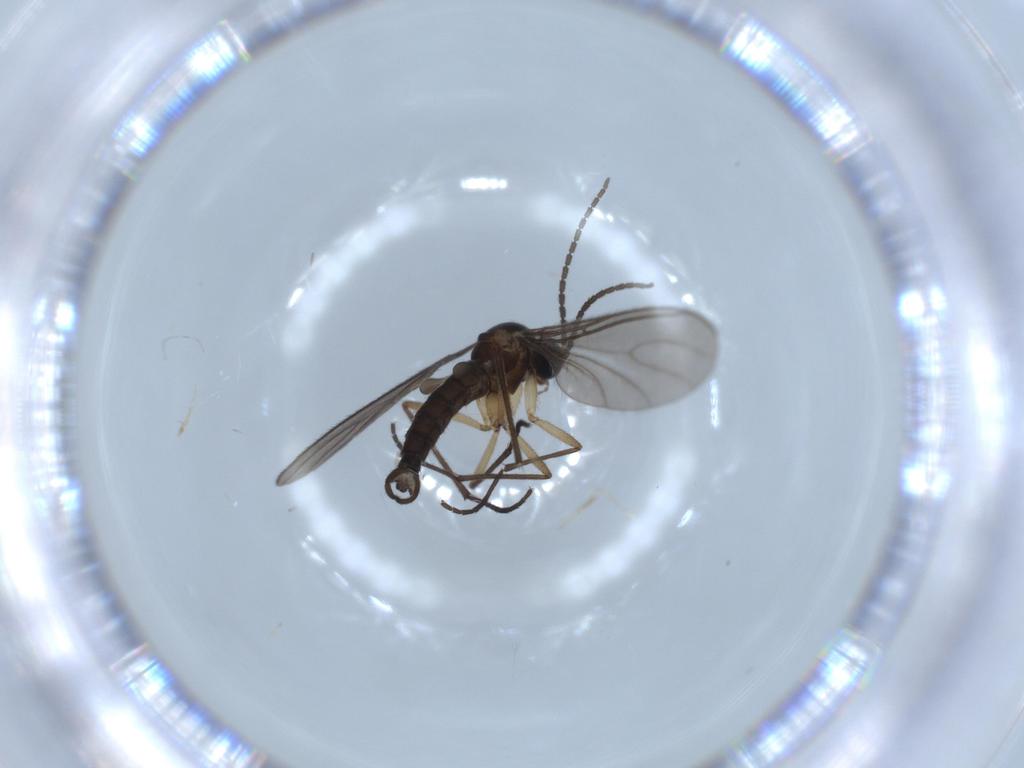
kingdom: Animalia
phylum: Arthropoda
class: Insecta
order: Diptera
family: Sciaridae
